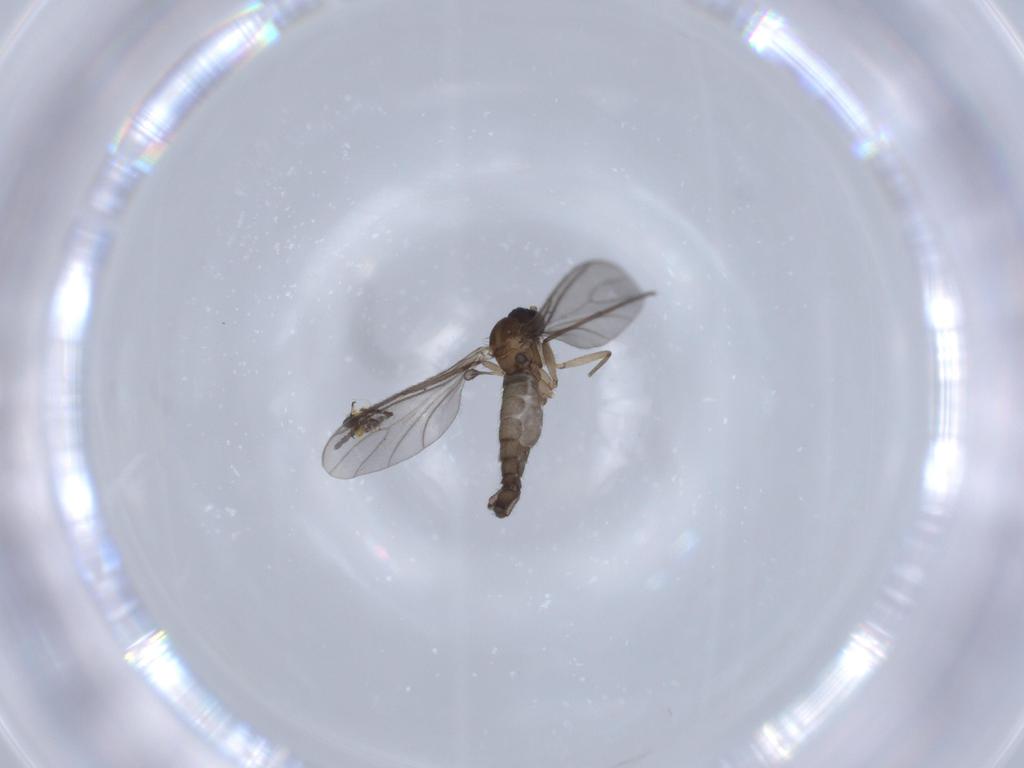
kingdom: Animalia
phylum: Arthropoda
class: Insecta
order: Diptera
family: Sciaridae
